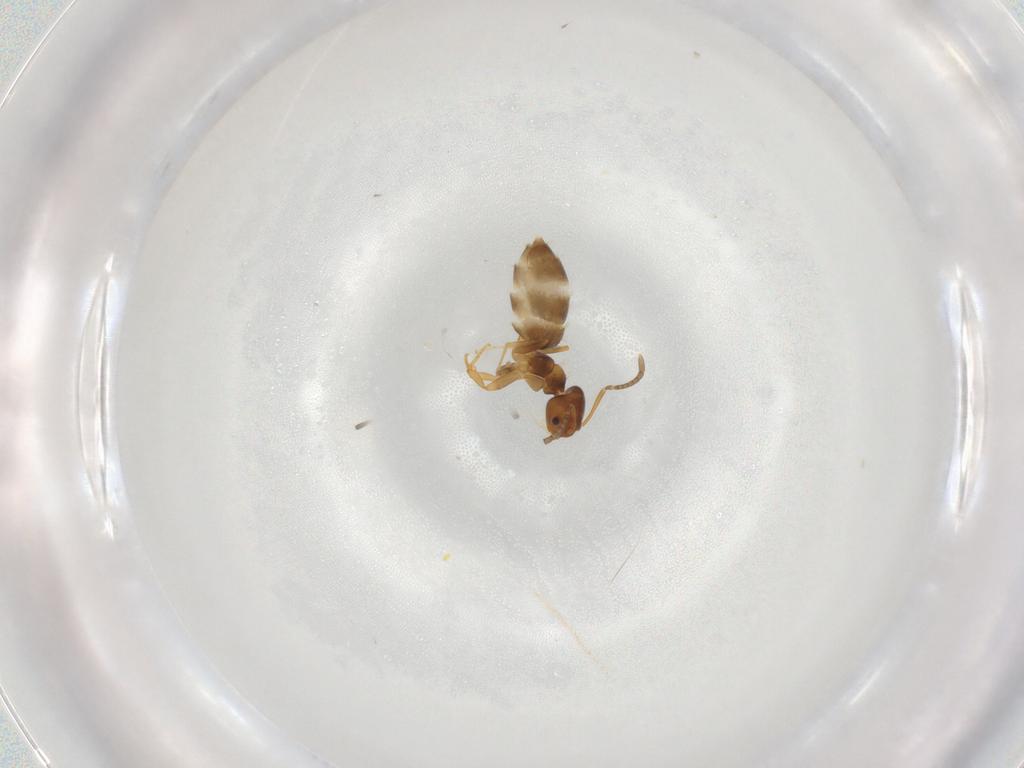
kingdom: Animalia
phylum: Arthropoda
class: Insecta
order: Hymenoptera
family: Formicidae
